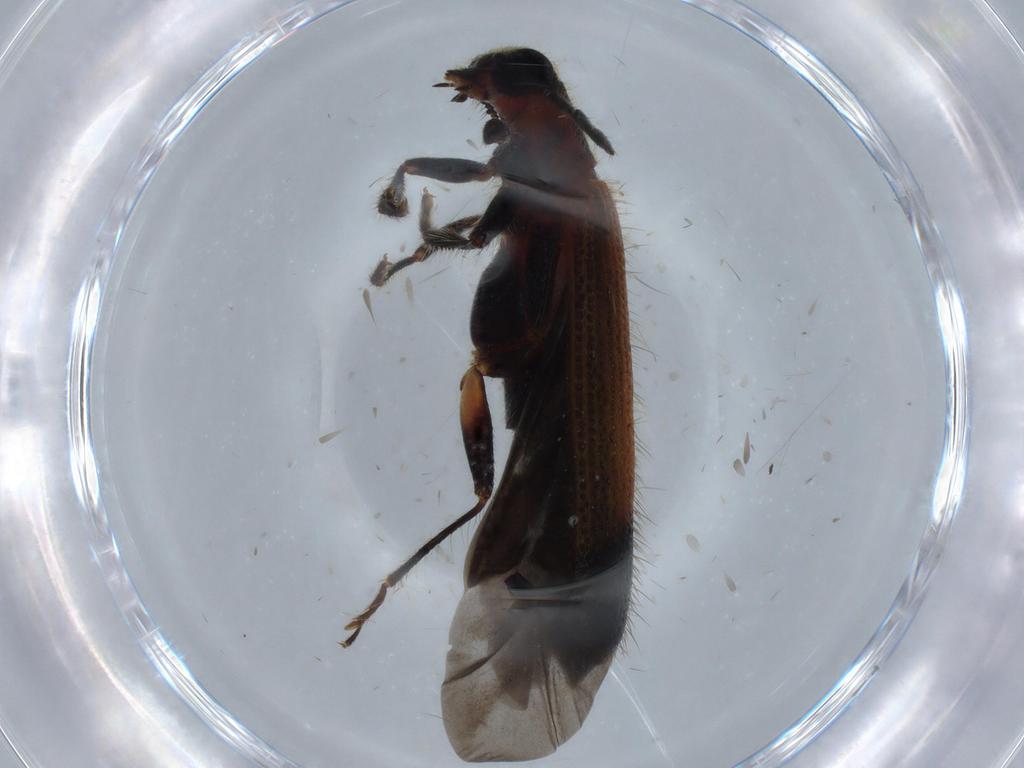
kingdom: Animalia
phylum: Arthropoda
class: Insecta
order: Coleoptera
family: Cleridae
